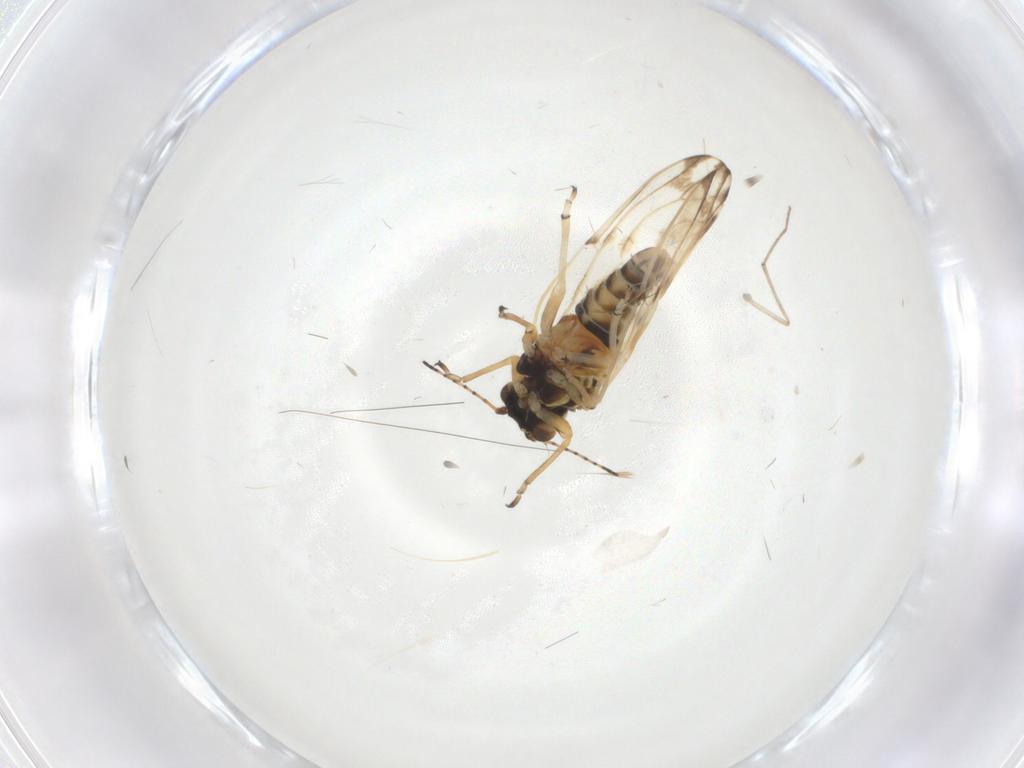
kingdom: Animalia
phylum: Arthropoda
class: Insecta
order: Hemiptera
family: Psylloidea_incertae_sedis
